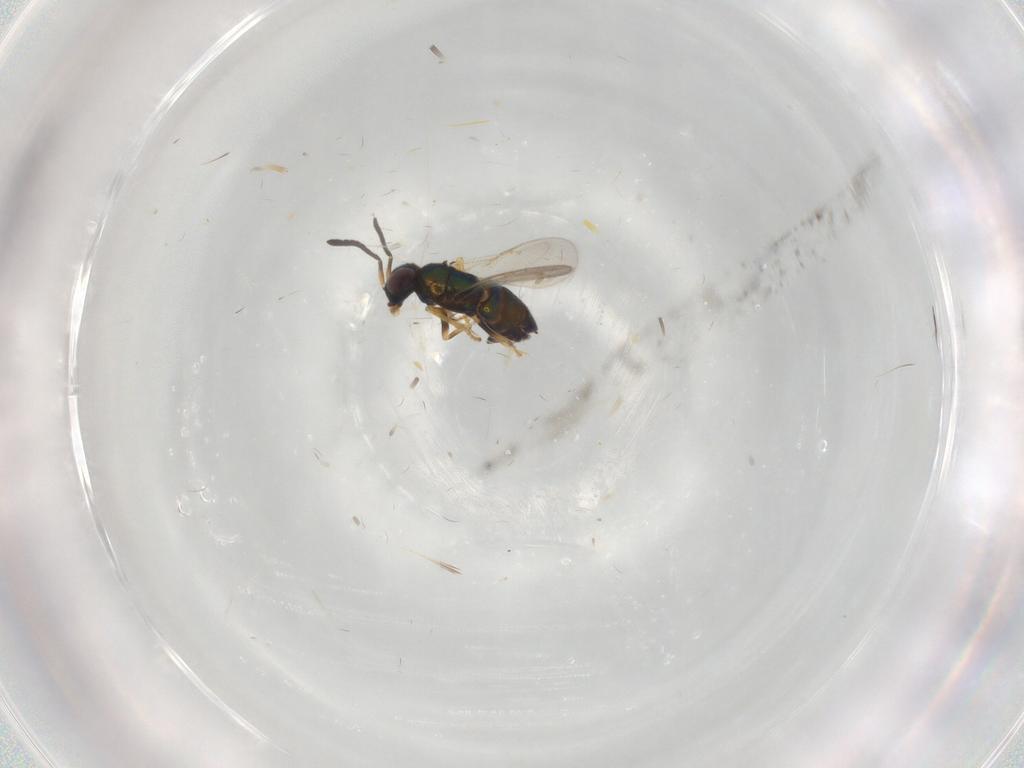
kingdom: Animalia
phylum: Arthropoda
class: Insecta
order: Hymenoptera
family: Encyrtidae
